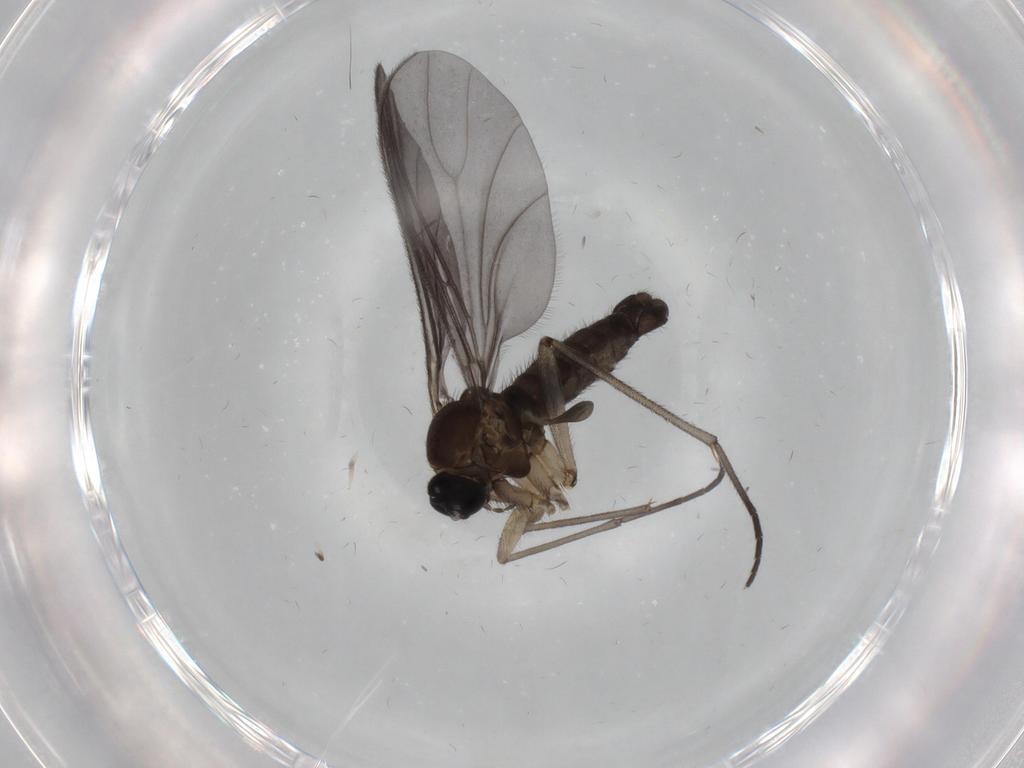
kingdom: Animalia
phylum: Arthropoda
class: Insecta
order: Diptera
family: Sciaridae
